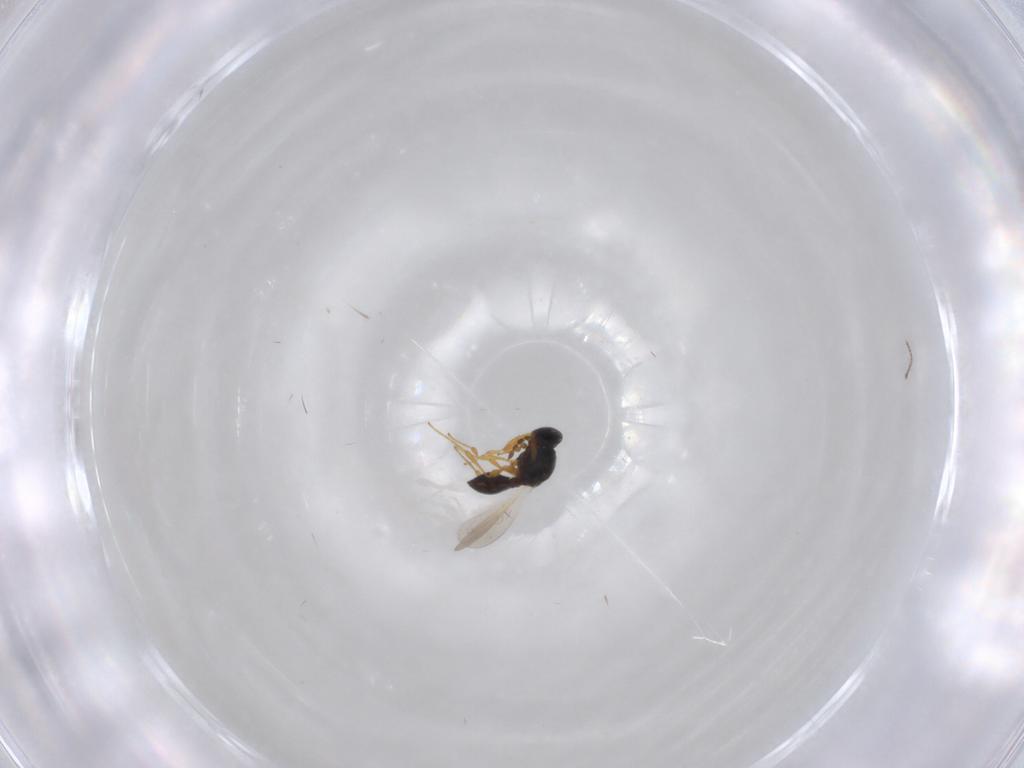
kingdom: Animalia
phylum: Arthropoda
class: Insecta
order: Hymenoptera
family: Platygastridae
